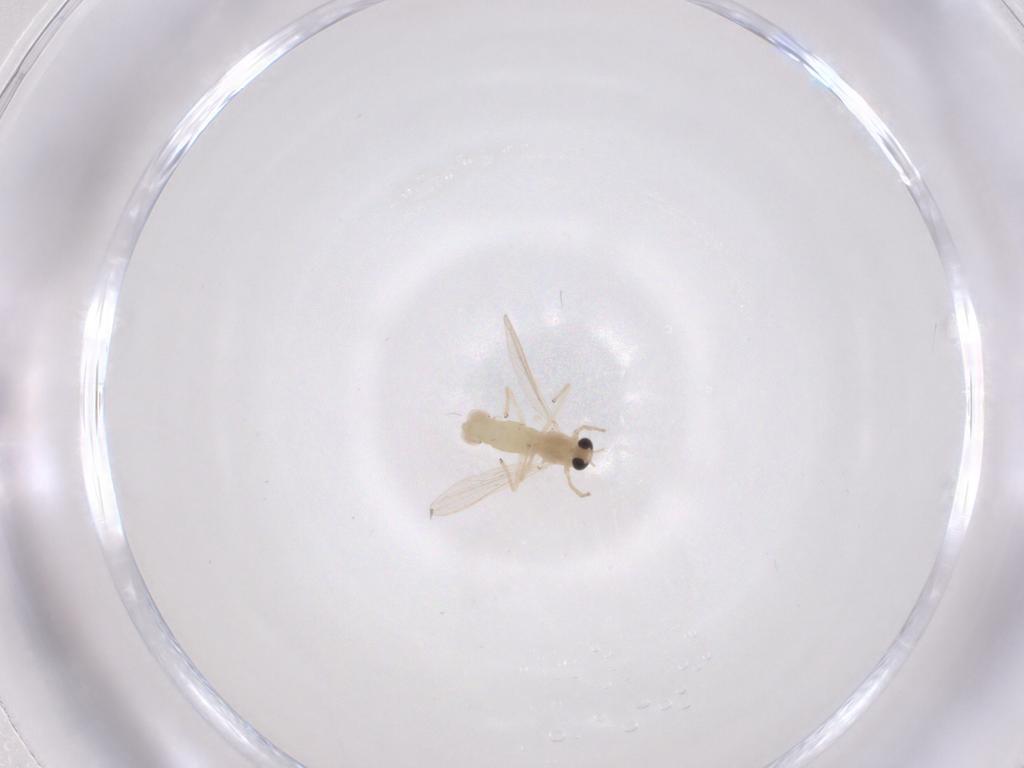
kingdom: Animalia
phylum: Arthropoda
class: Insecta
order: Diptera
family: Chironomidae
